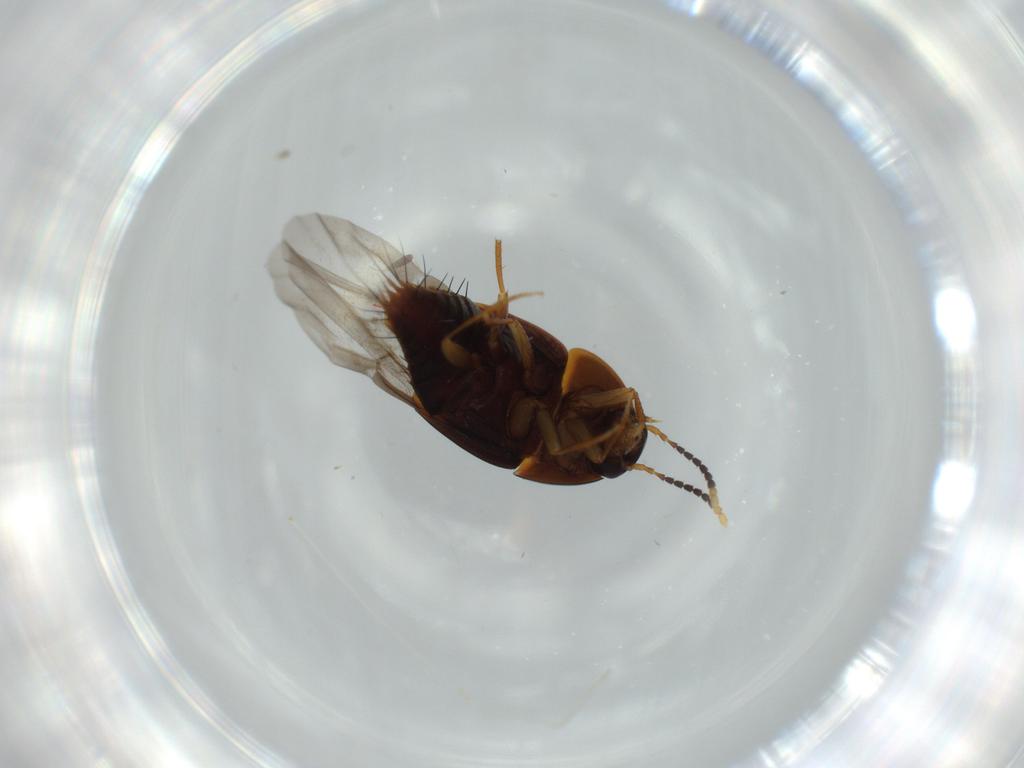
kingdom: Animalia
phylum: Arthropoda
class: Insecta
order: Coleoptera
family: Staphylinidae
